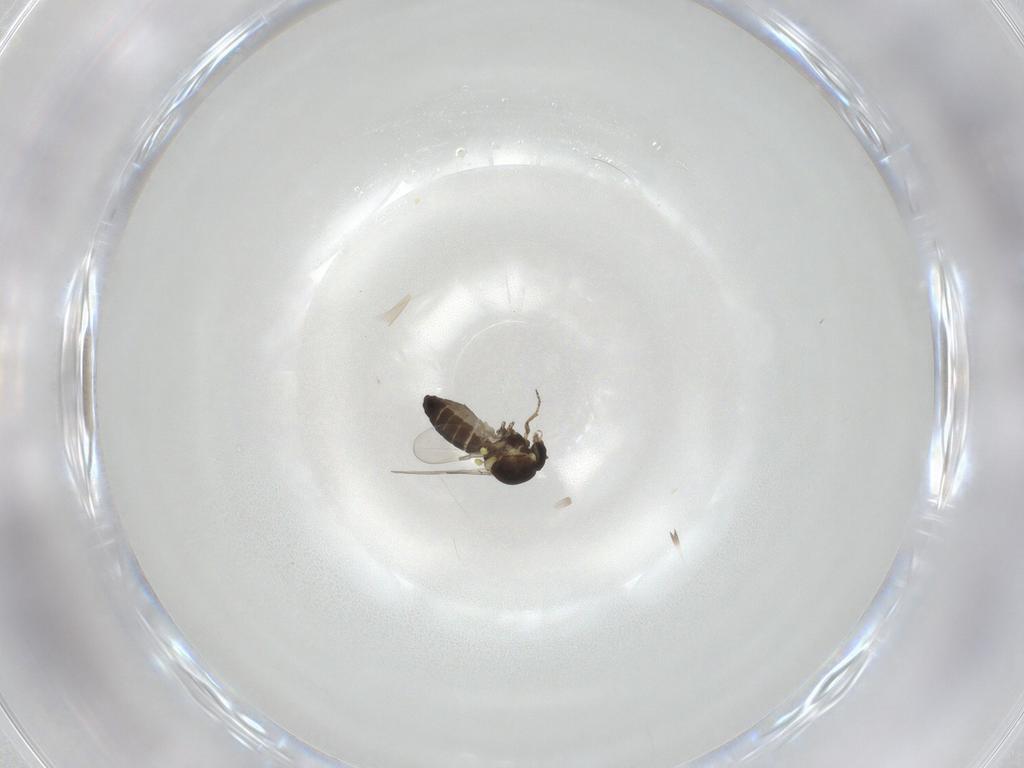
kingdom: Animalia
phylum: Arthropoda
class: Insecta
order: Diptera
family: Ceratopogonidae
